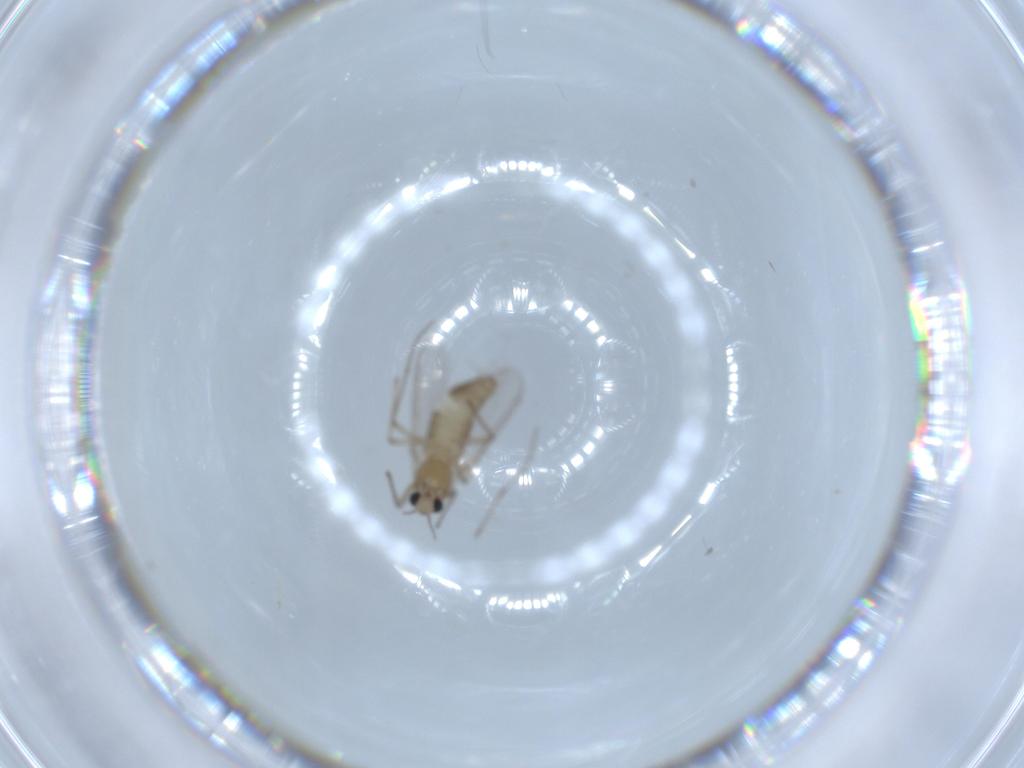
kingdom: Animalia
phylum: Arthropoda
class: Insecta
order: Diptera
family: Chironomidae
